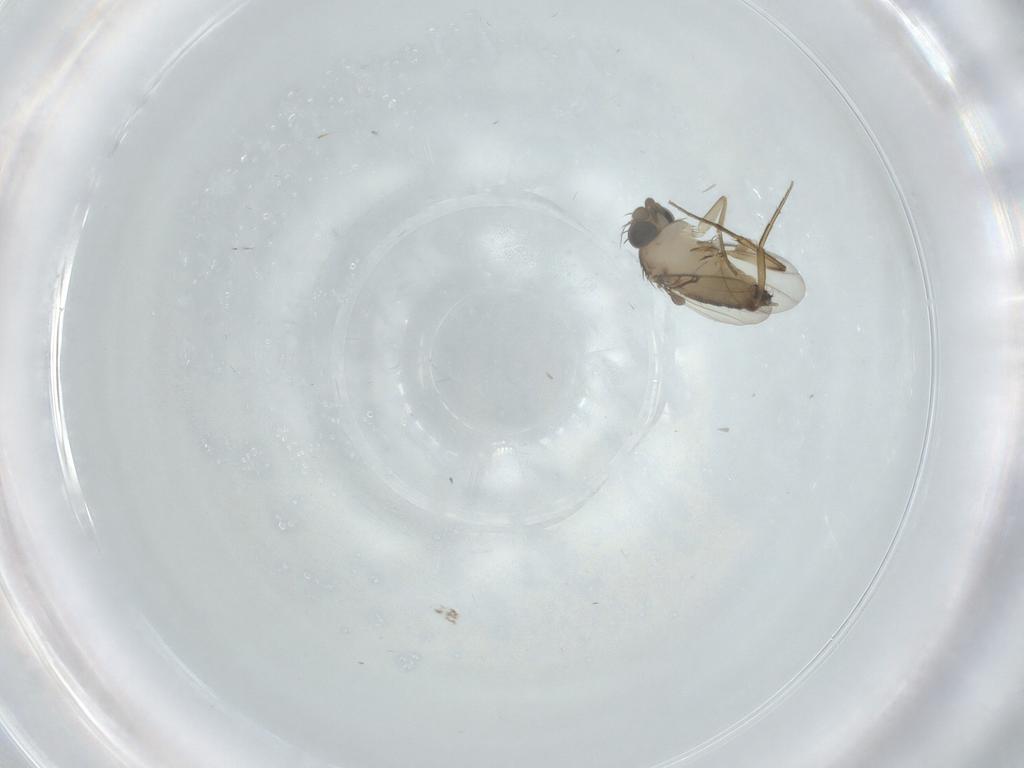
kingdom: Animalia
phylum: Arthropoda
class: Insecta
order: Diptera
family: Phoridae
